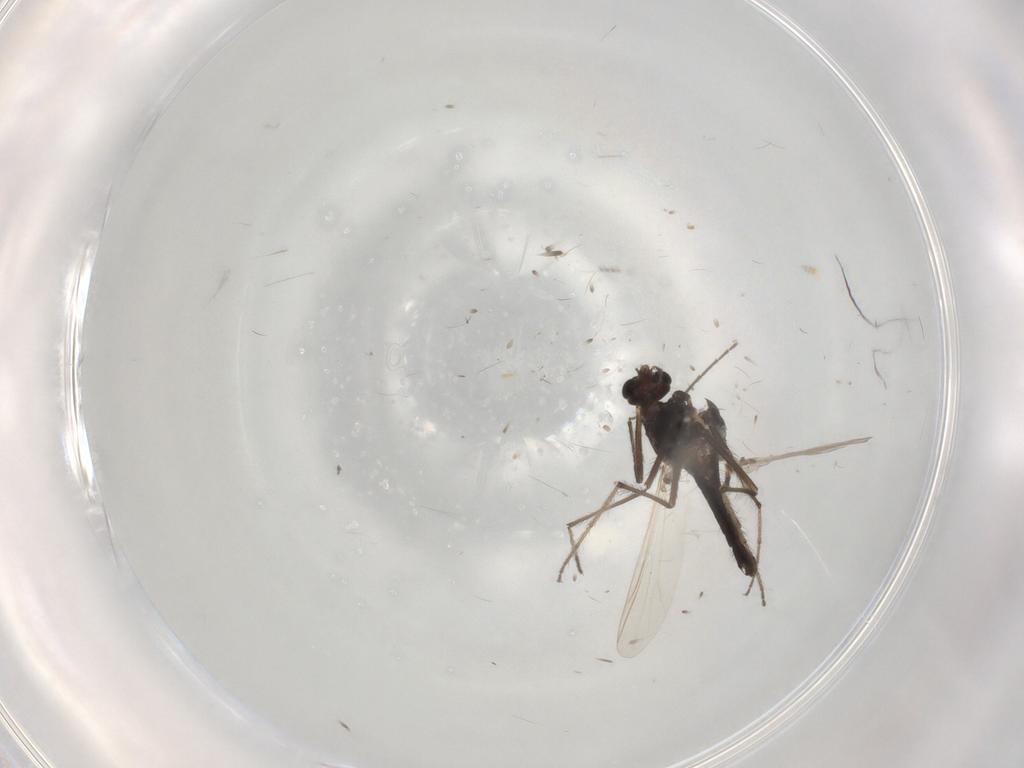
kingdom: Animalia
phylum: Arthropoda
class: Insecta
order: Diptera
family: Chironomidae
